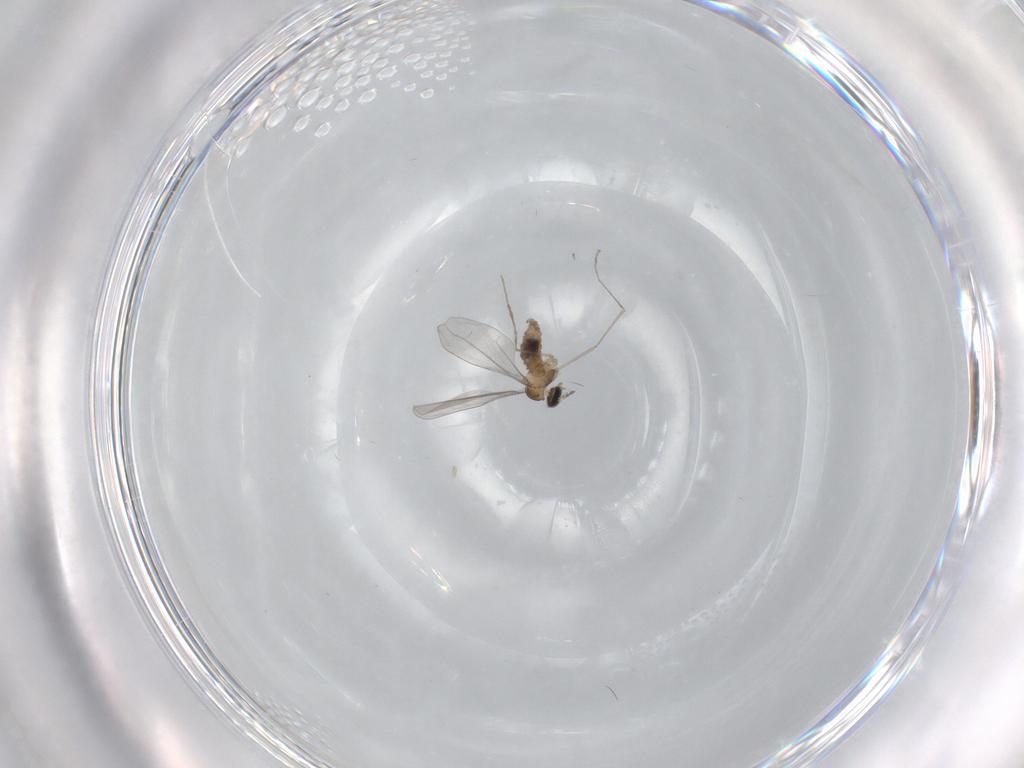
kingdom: Animalia
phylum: Arthropoda
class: Insecta
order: Diptera
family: Cecidomyiidae
